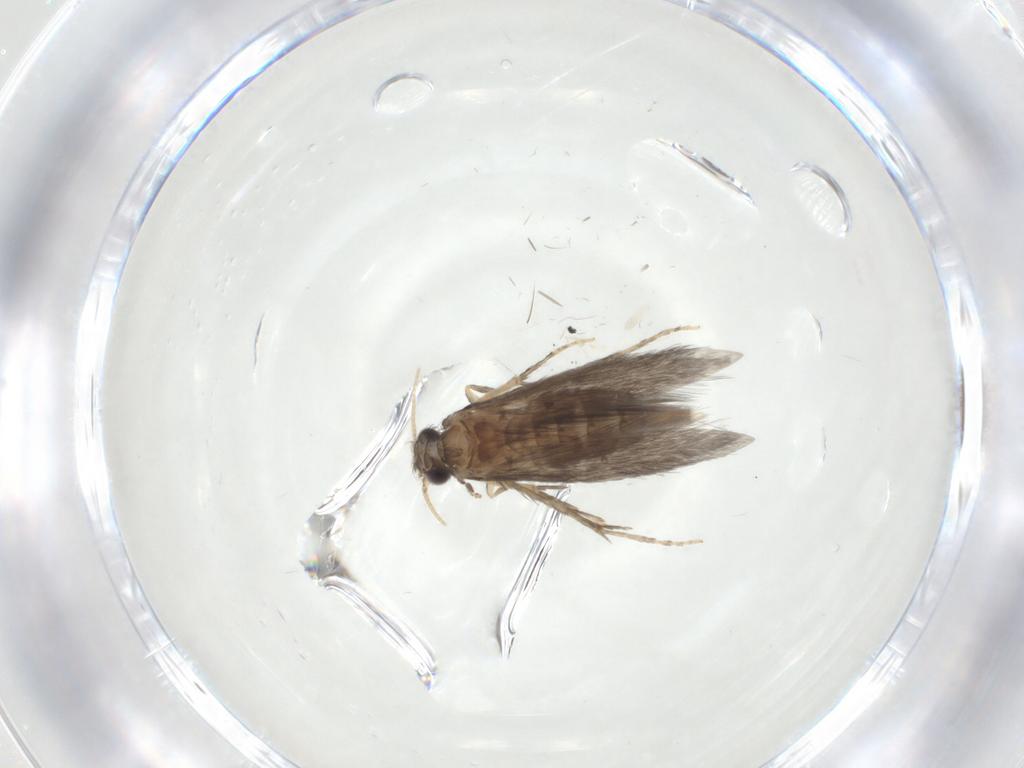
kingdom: Animalia
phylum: Arthropoda
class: Insecta
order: Trichoptera
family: Hydroptilidae
